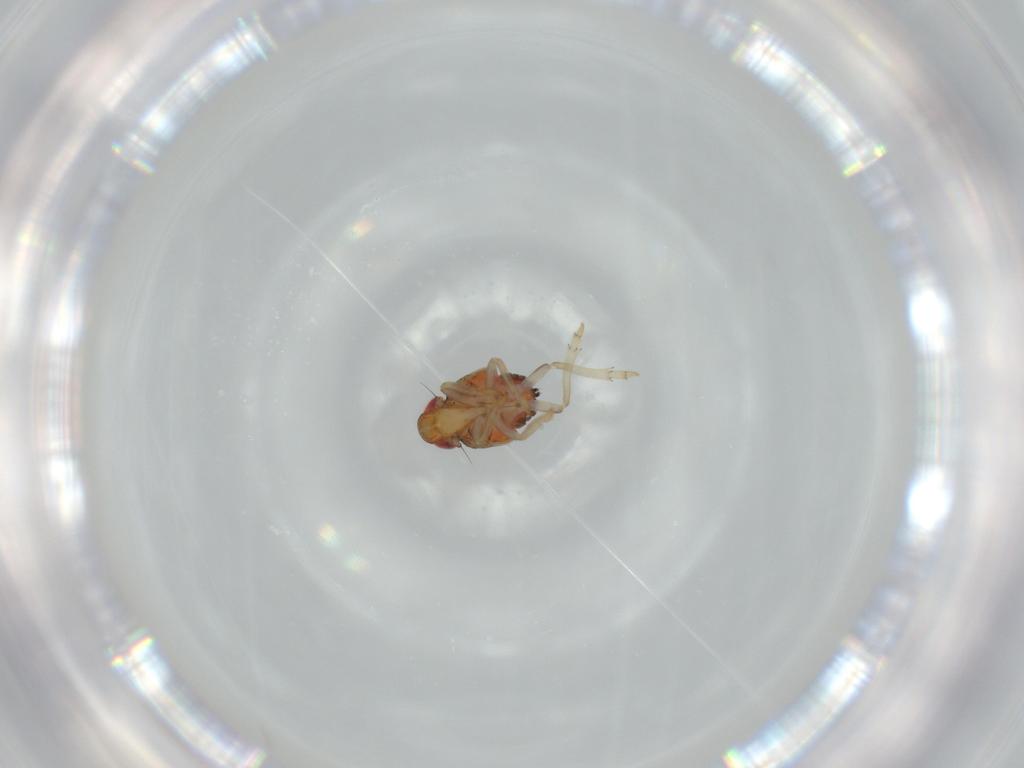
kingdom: Animalia
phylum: Arthropoda
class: Insecta
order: Hemiptera
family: Issidae
